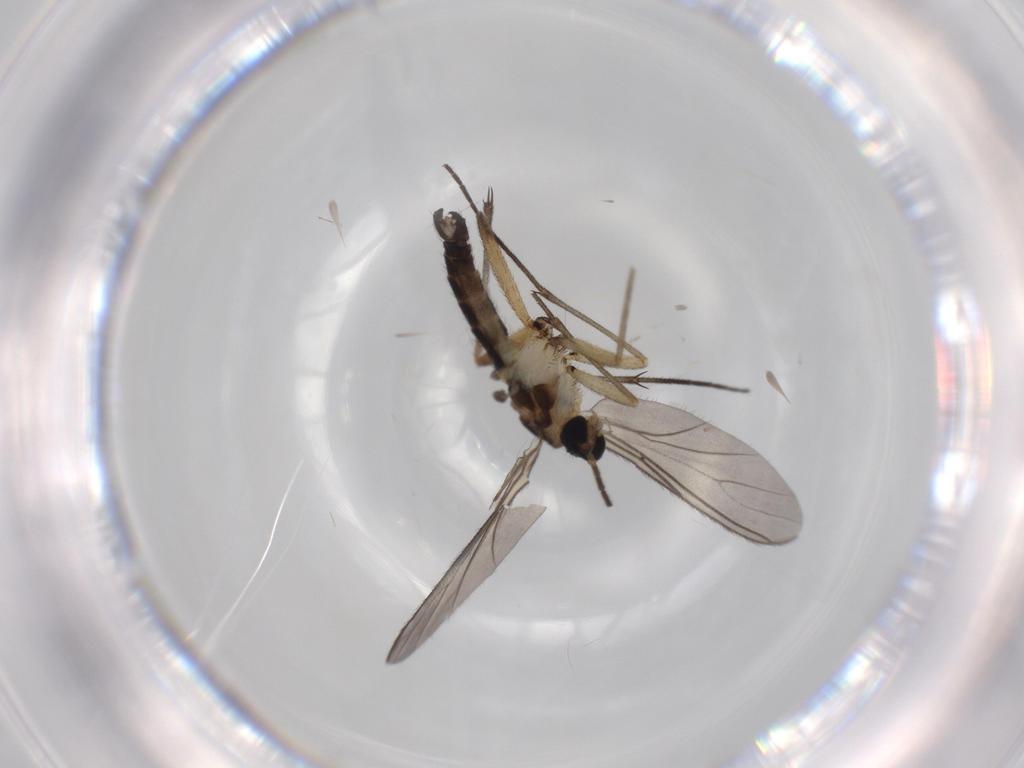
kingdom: Animalia
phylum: Arthropoda
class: Insecta
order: Diptera
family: Sciaridae
